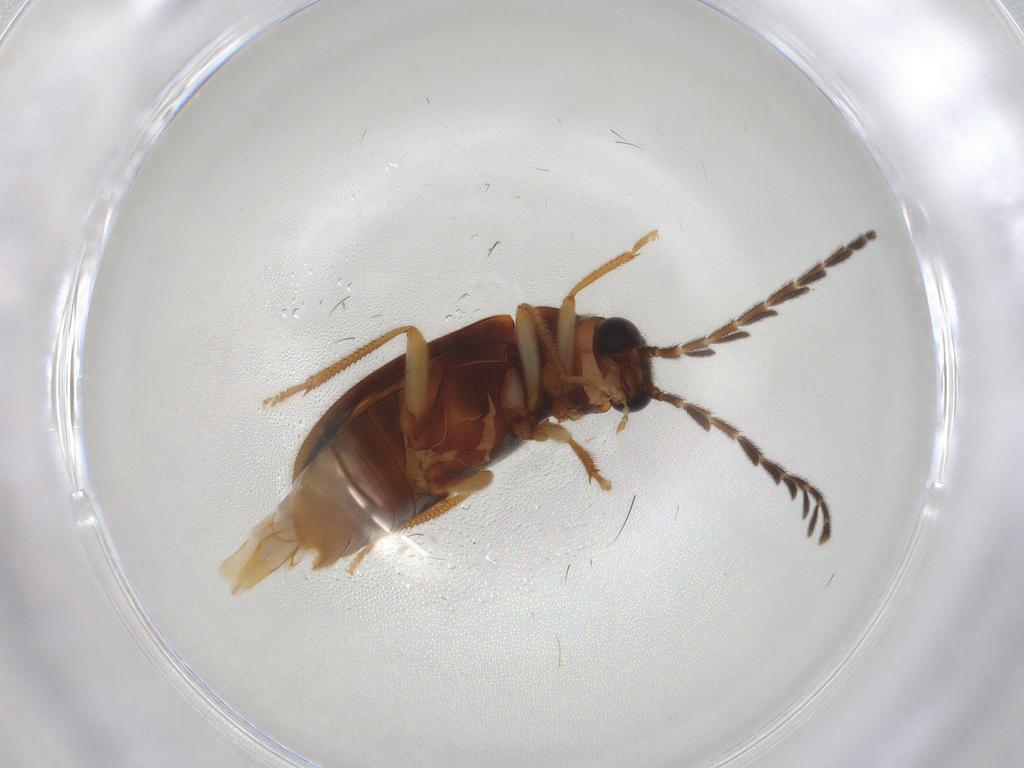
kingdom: Animalia
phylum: Arthropoda
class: Insecta
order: Coleoptera
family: Ptilodactylidae
